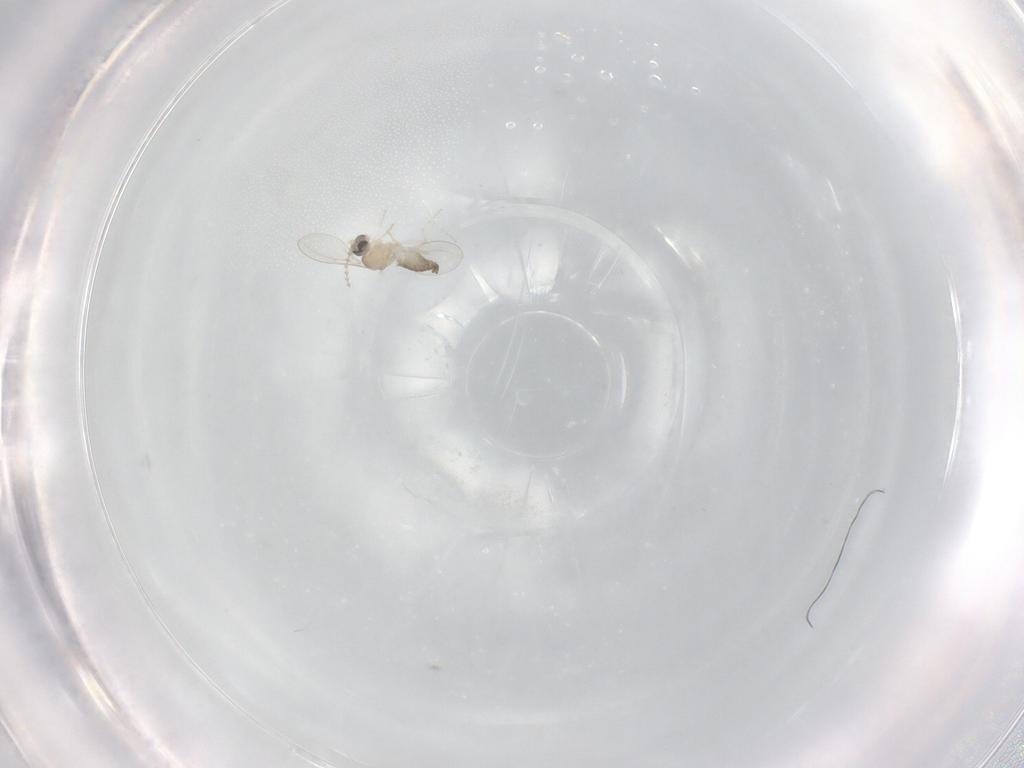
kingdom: Animalia
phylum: Arthropoda
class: Insecta
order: Diptera
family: Cecidomyiidae
